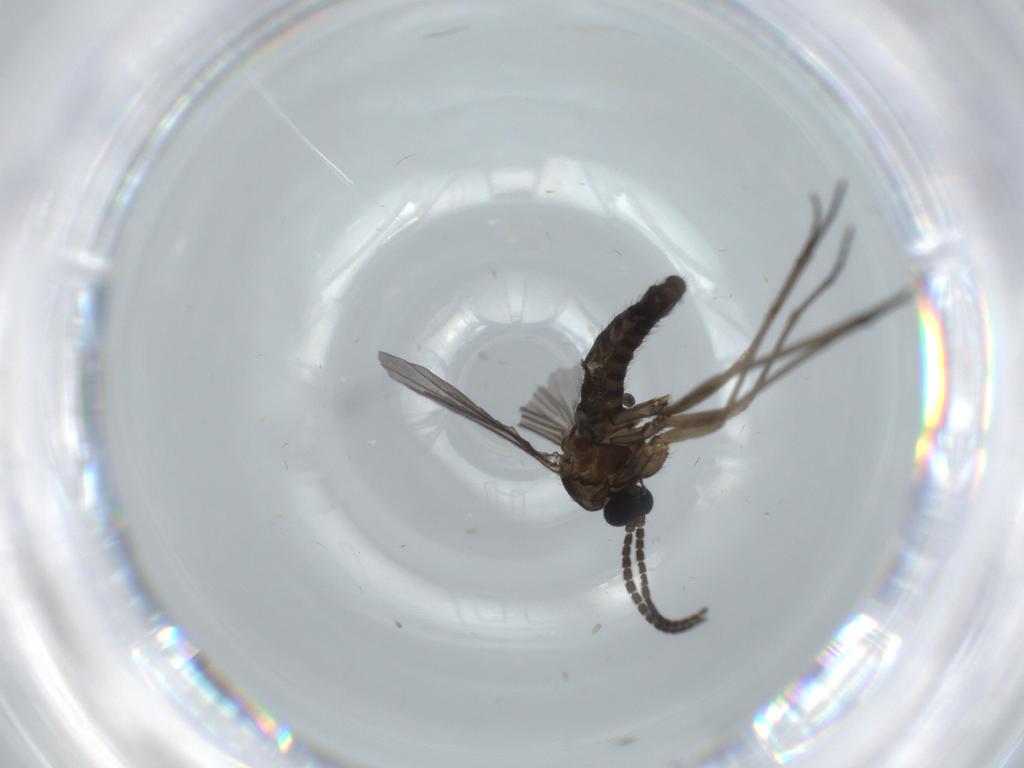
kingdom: Animalia
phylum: Arthropoda
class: Insecta
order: Diptera
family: Sciaridae
